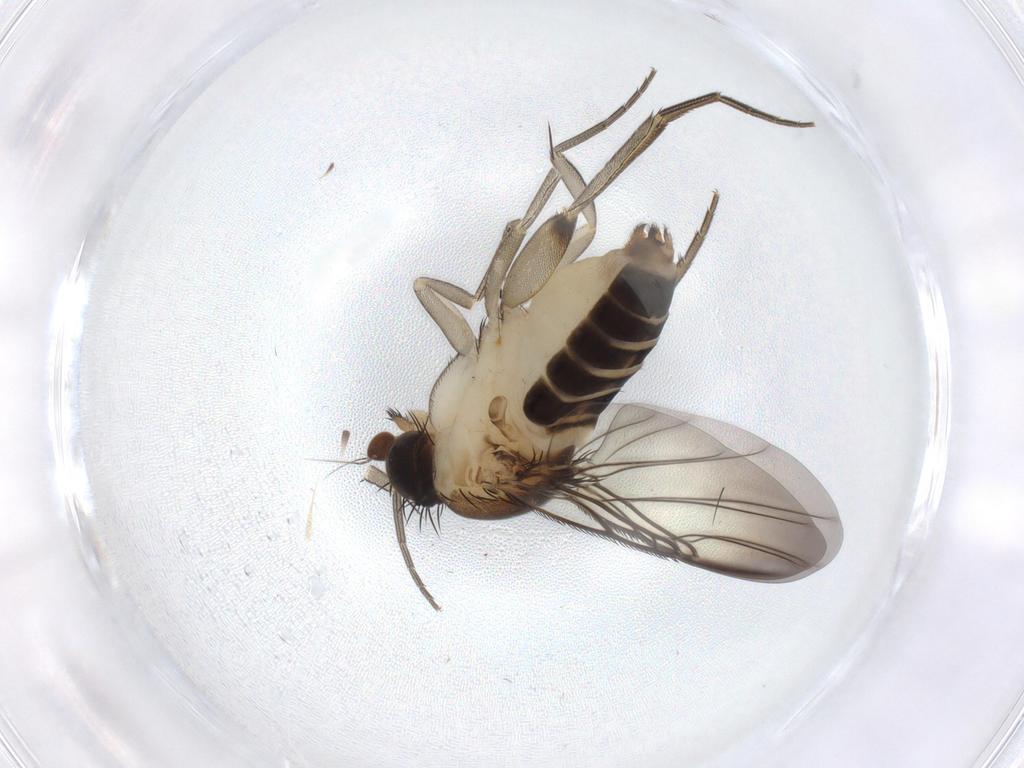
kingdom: Animalia
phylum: Arthropoda
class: Insecta
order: Diptera
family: Phoridae
